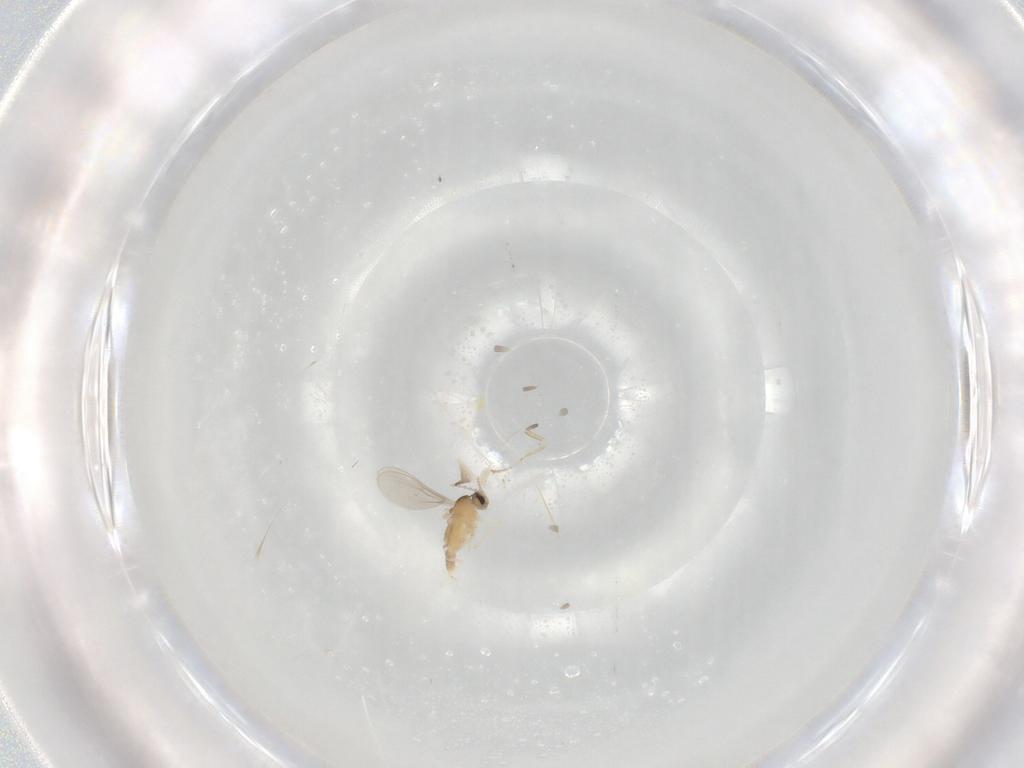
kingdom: Animalia
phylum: Arthropoda
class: Insecta
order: Diptera
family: Cecidomyiidae
